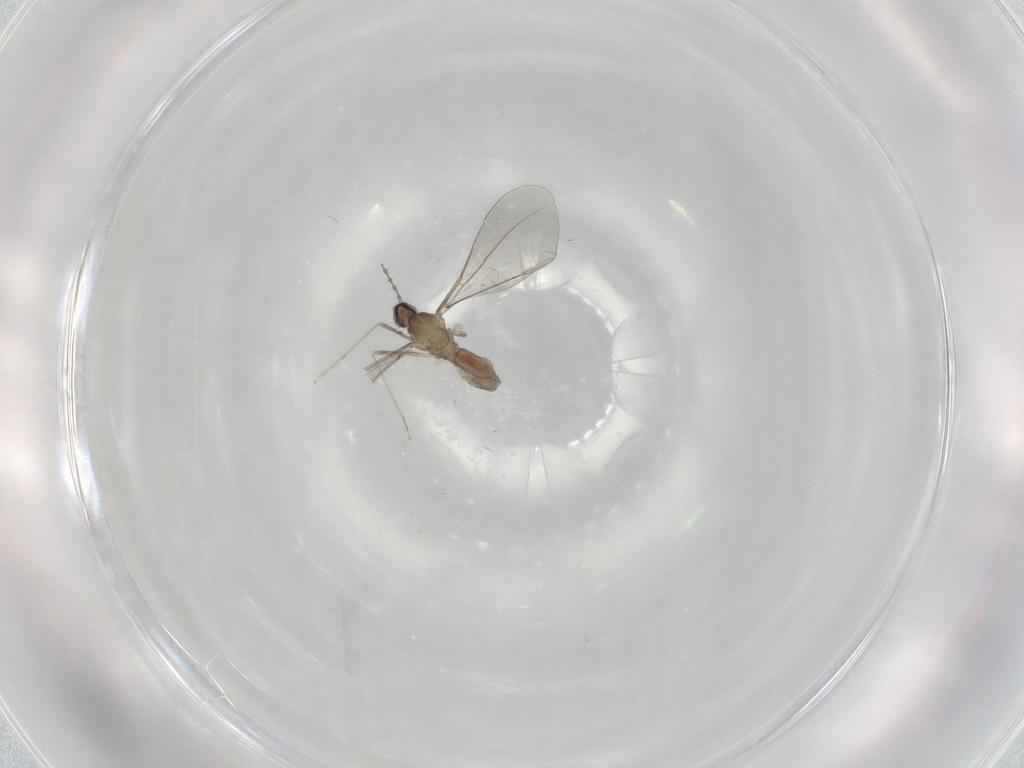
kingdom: Animalia
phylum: Arthropoda
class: Insecta
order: Diptera
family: Cecidomyiidae
